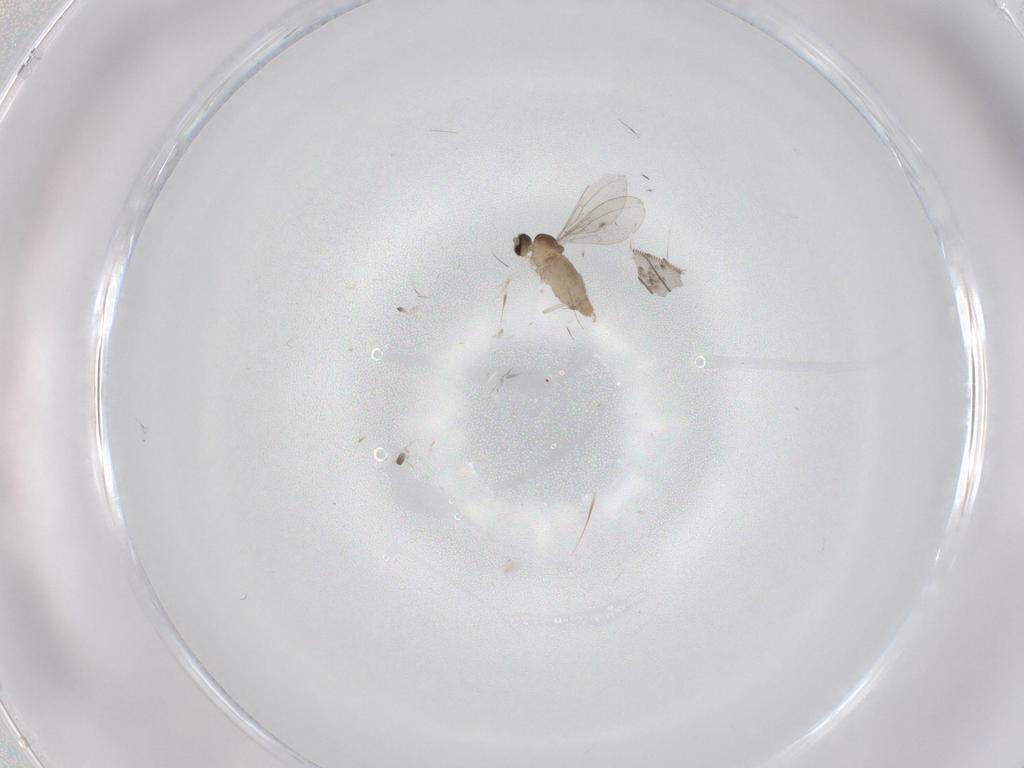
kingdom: Animalia
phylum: Arthropoda
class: Insecta
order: Diptera
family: Cecidomyiidae
